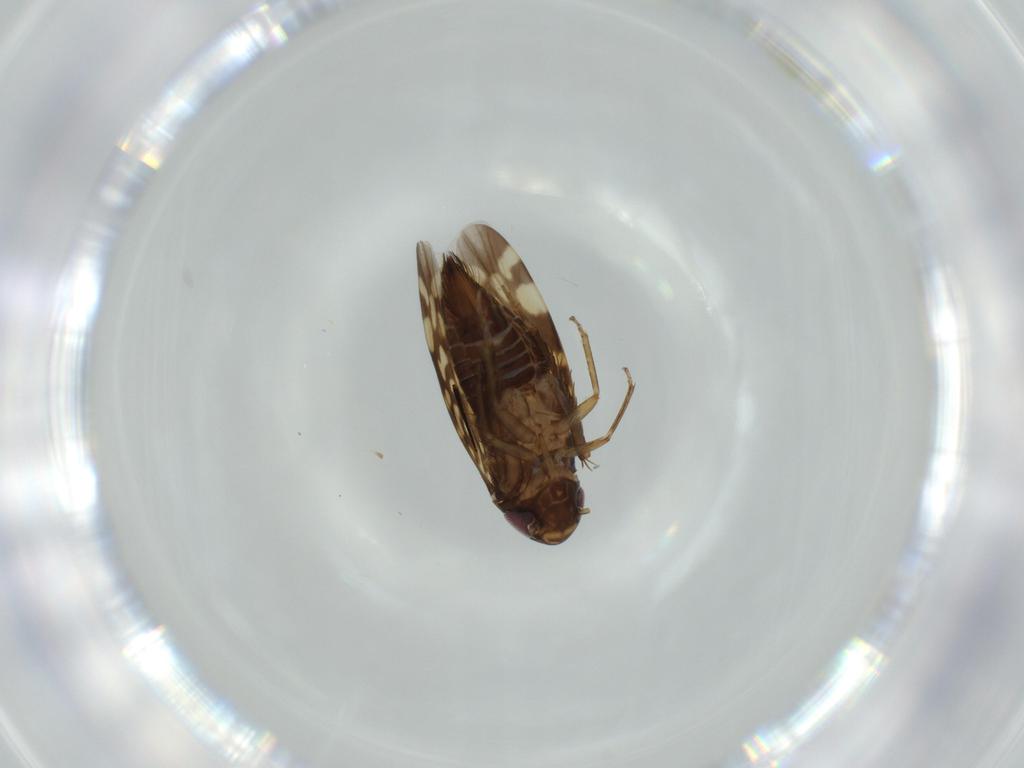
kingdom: Animalia
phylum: Arthropoda
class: Insecta
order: Hemiptera
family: Cicadellidae
